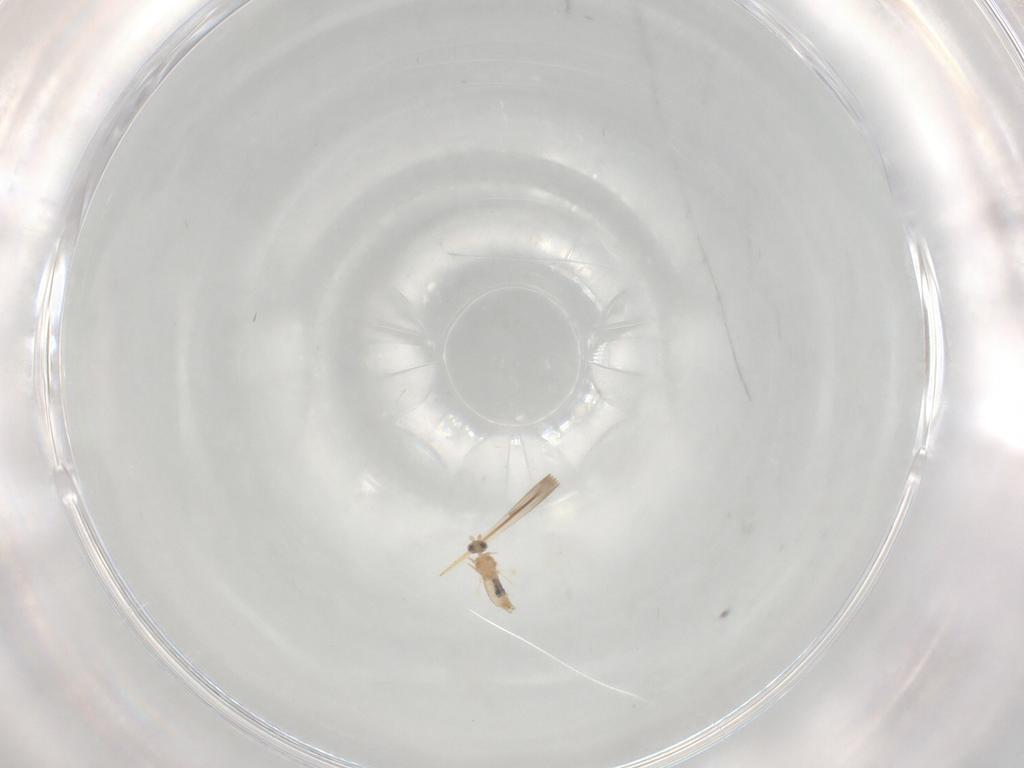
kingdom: Animalia
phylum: Arthropoda
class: Insecta
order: Diptera
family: Cecidomyiidae
